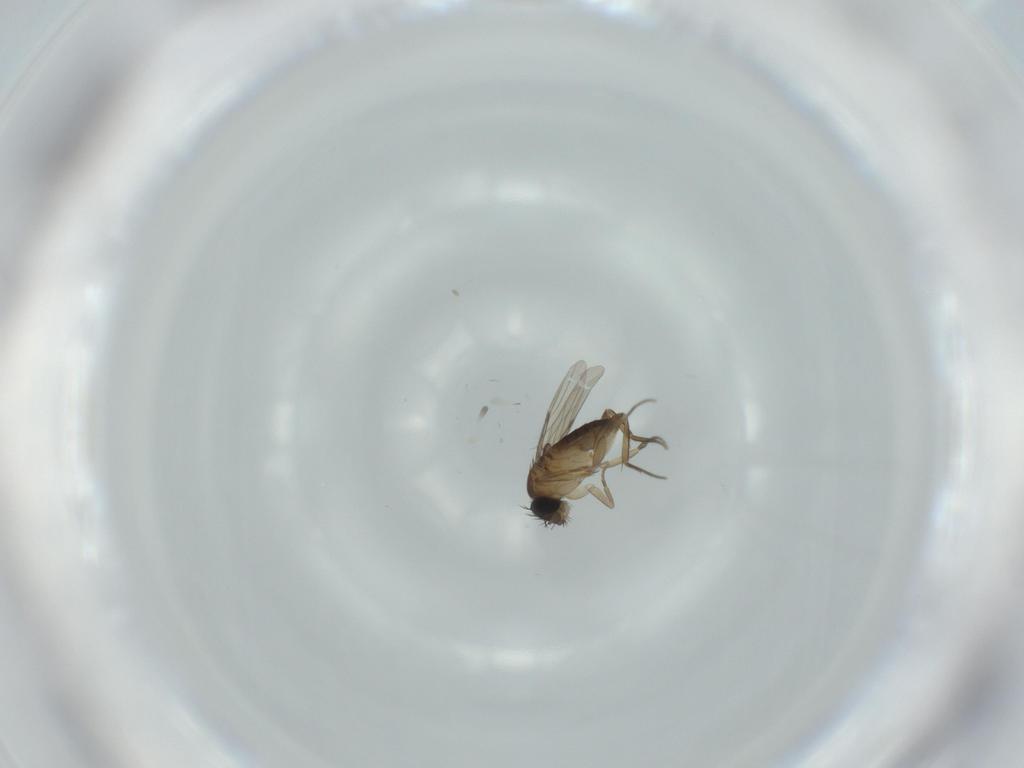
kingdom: Animalia
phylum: Arthropoda
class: Insecta
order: Diptera
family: Phoridae
